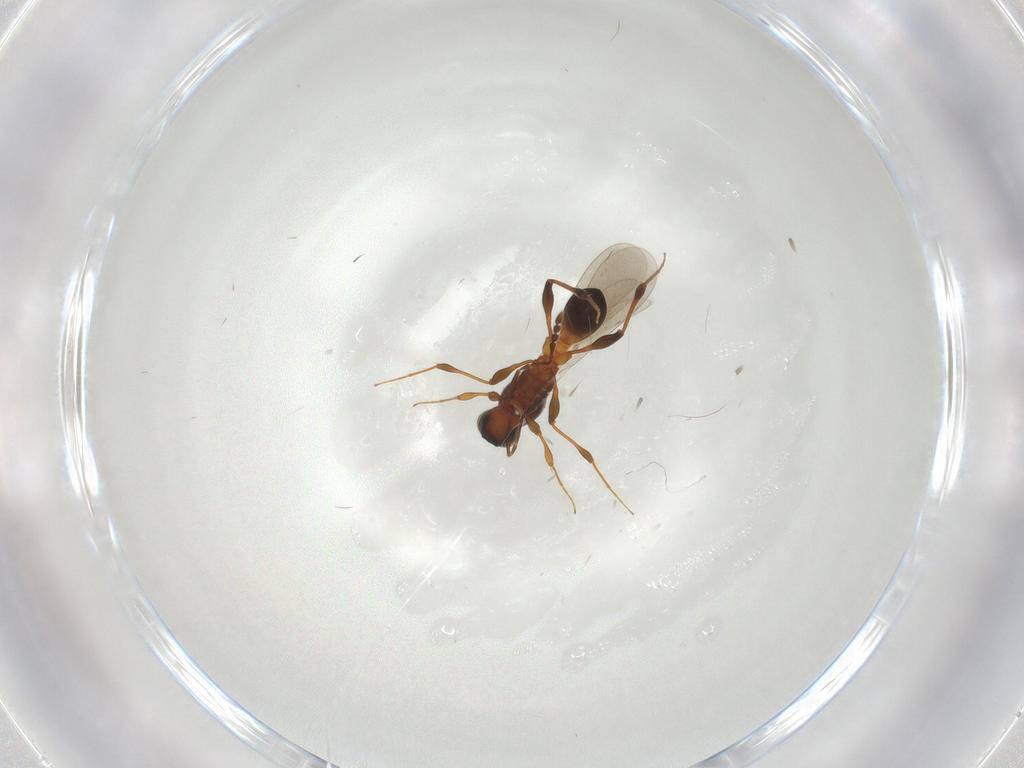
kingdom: Animalia
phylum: Arthropoda
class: Insecta
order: Hymenoptera
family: Platygastridae
